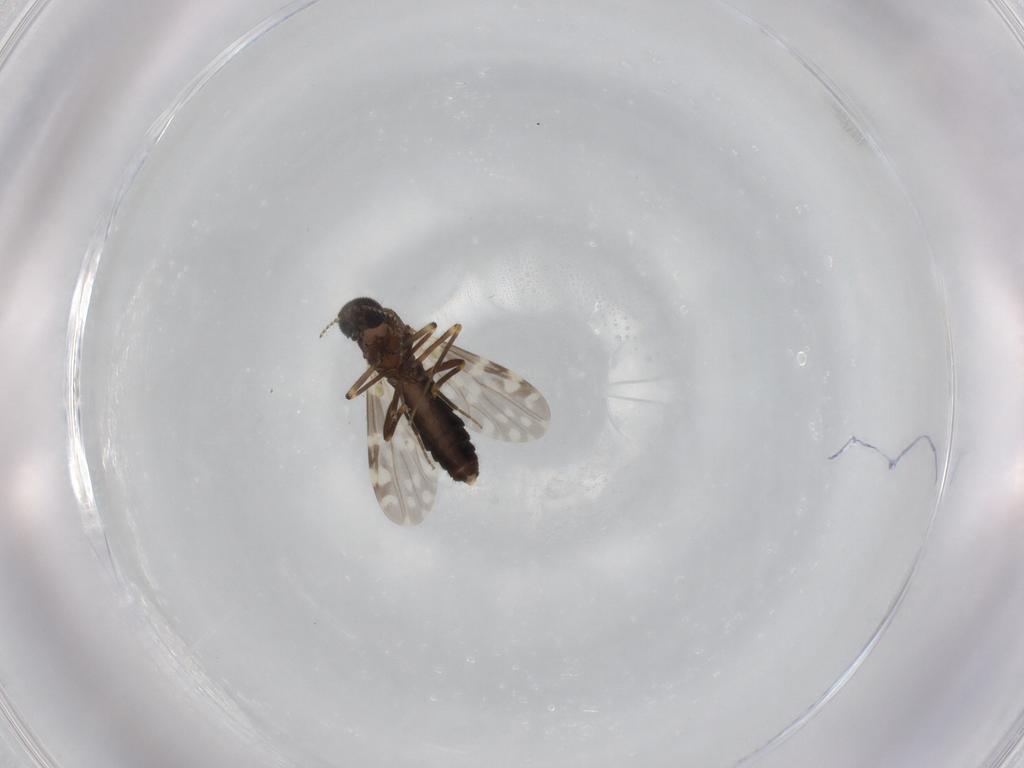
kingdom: Animalia
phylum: Arthropoda
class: Insecta
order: Diptera
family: Ceratopogonidae
